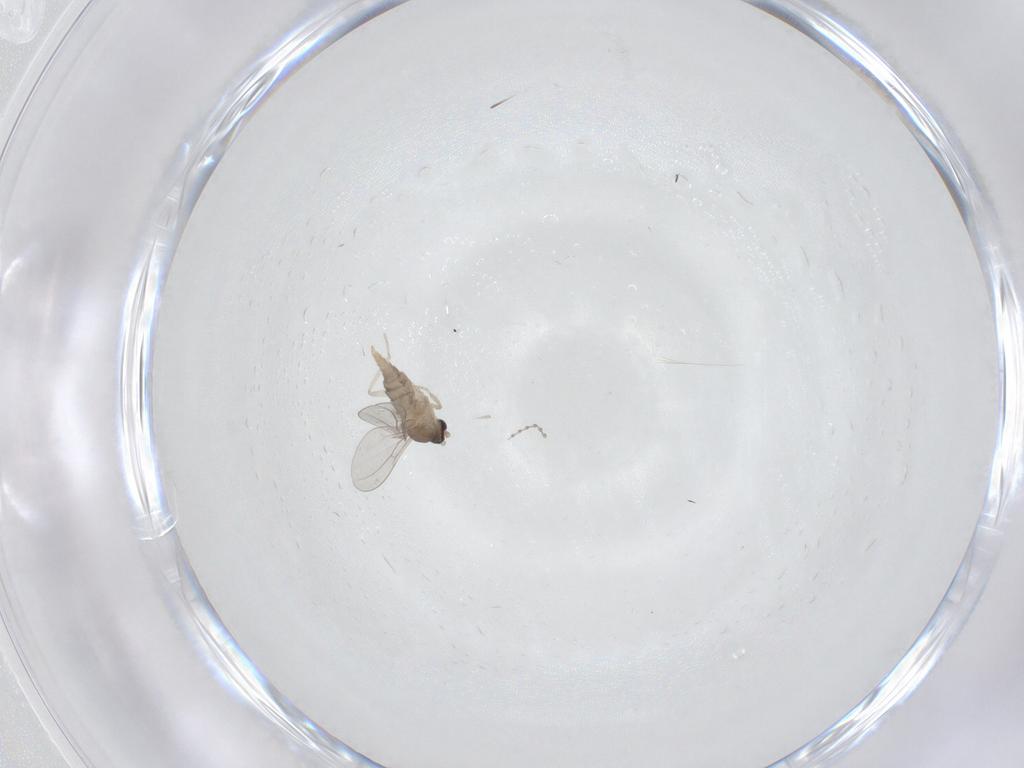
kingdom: Animalia
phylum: Arthropoda
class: Insecta
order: Diptera
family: Cecidomyiidae
